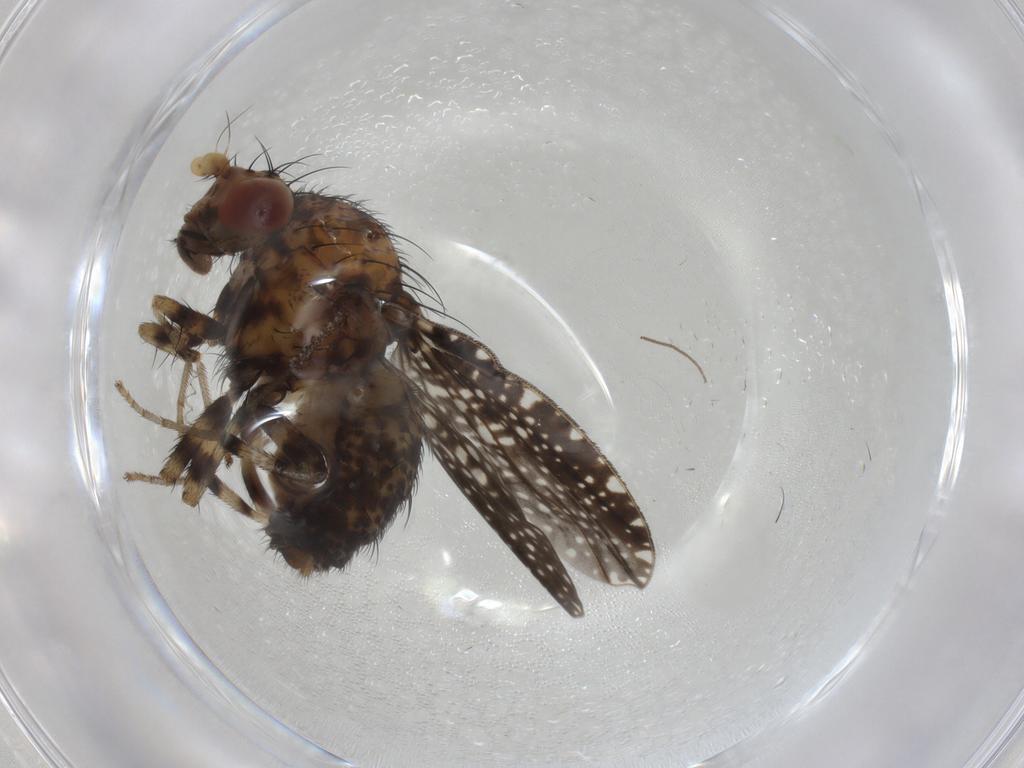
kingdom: Animalia
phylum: Arthropoda
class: Insecta
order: Diptera
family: Chironomidae
